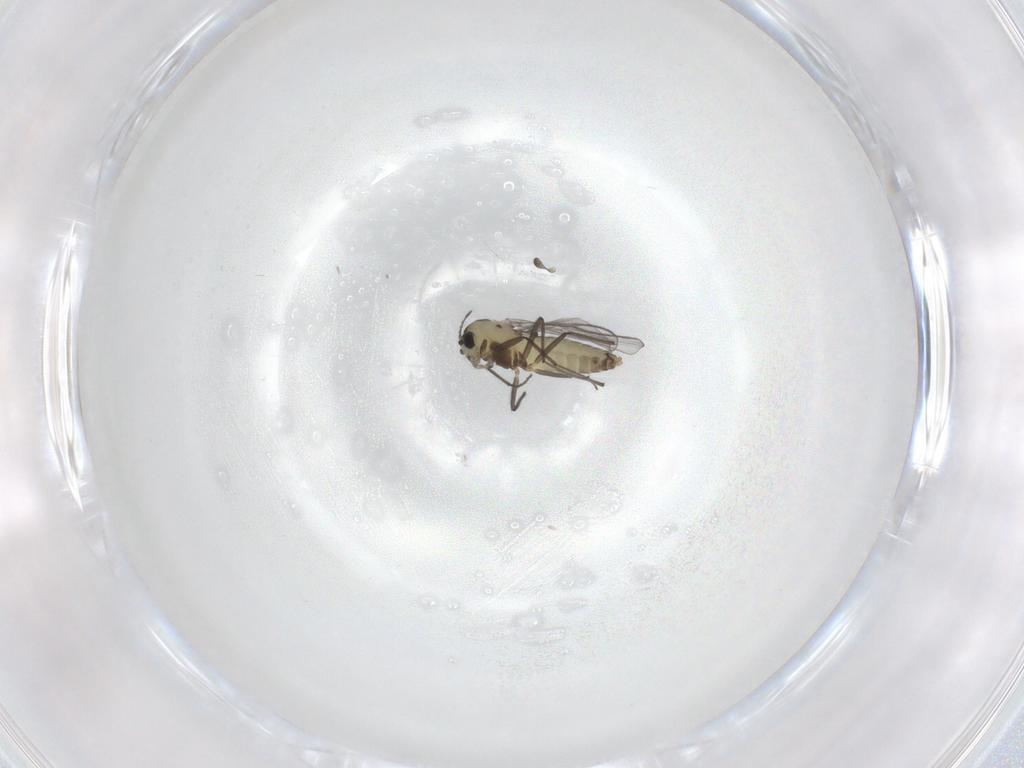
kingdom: Animalia
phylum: Arthropoda
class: Insecta
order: Diptera
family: Chironomidae
